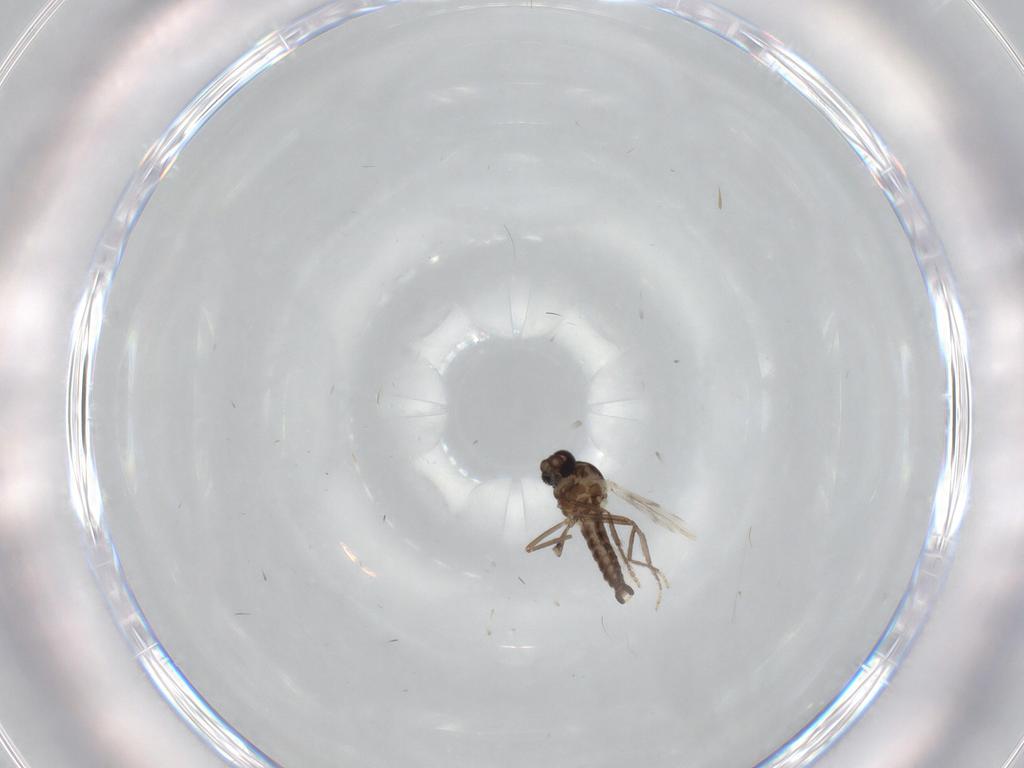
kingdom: Animalia
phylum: Arthropoda
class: Insecta
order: Diptera
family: Ceratopogonidae
